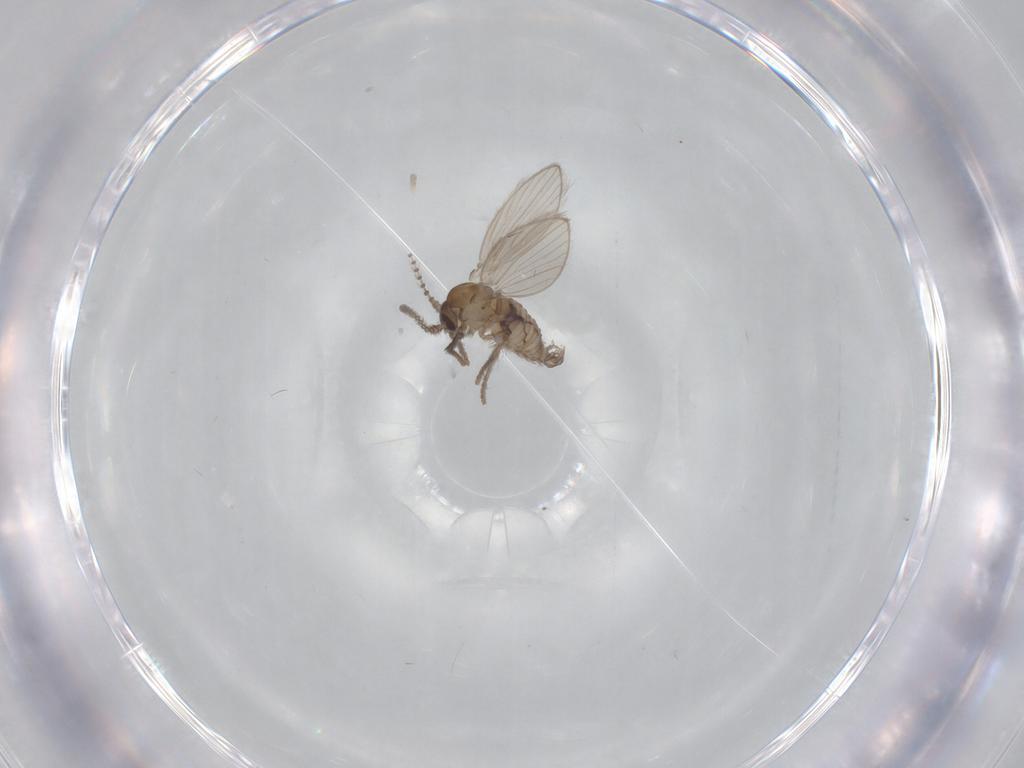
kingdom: Animalia
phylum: Arthropoda
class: Insecta
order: Diptera
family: Psychodidae
